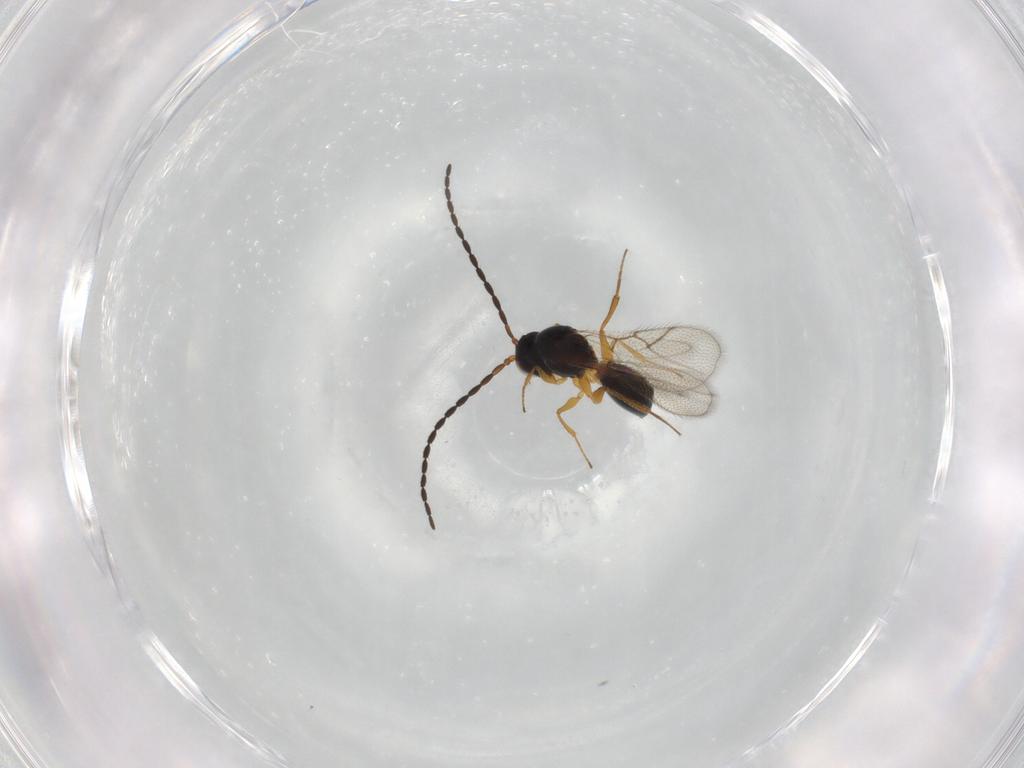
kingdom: Animalia
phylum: Arthropoda
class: Insecta
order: Hymenoptera
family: Figitidae
